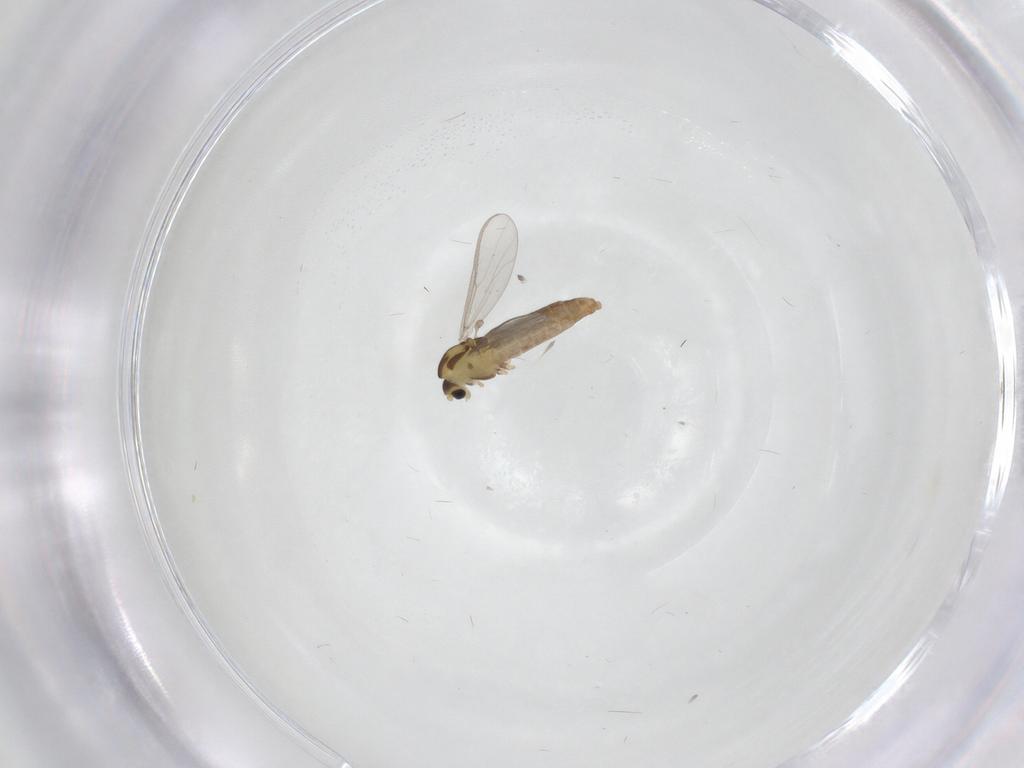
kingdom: Animalia
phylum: Arthropoda
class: Insecta
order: Diptera
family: Chironomidae
